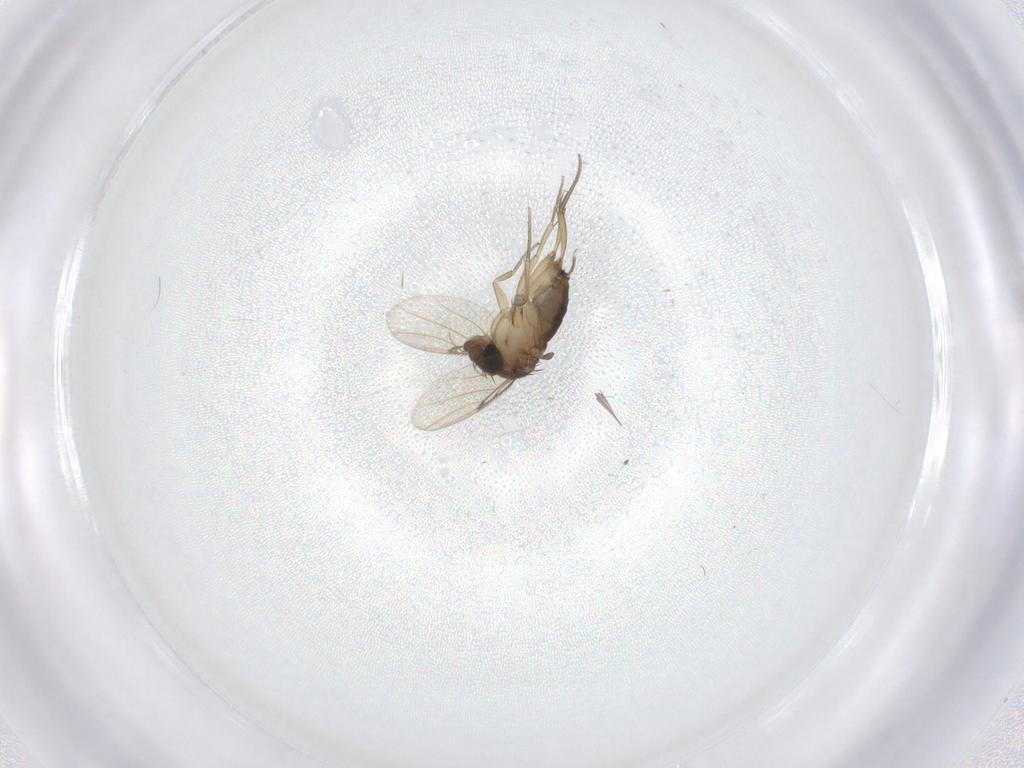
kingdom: Animalia
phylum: Arthropoda
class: Insecta
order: Diptera
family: Phoridae
